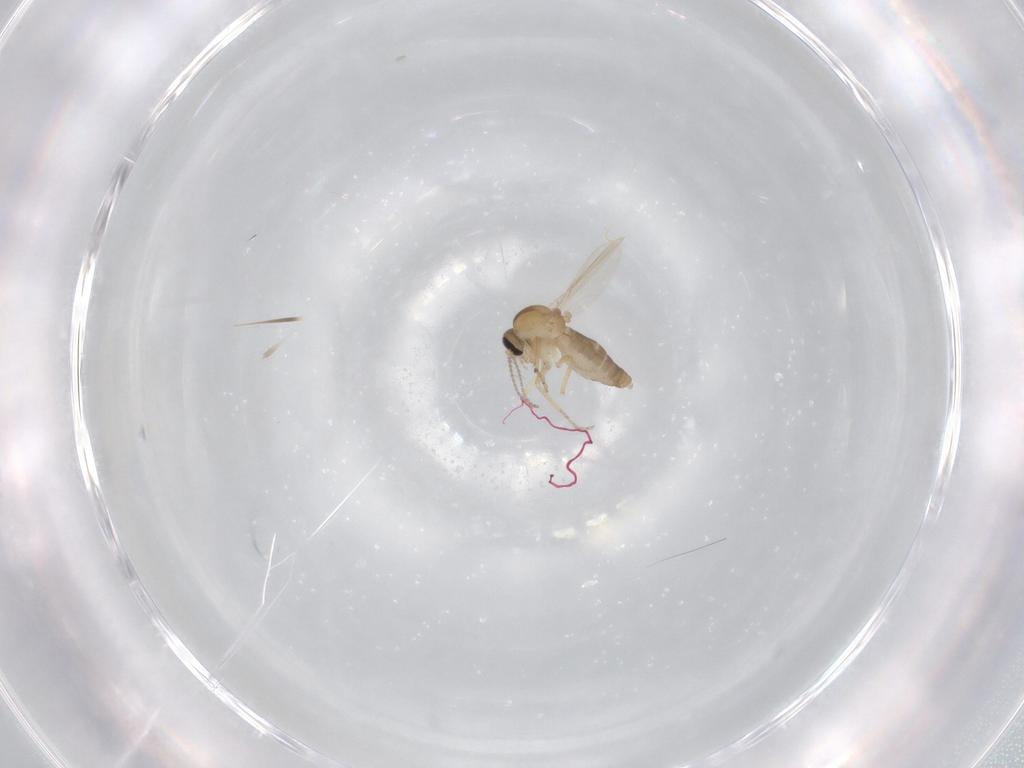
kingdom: Animalia
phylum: Arthropoda
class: Insecta
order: Diptera
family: Ceratopogonidae
